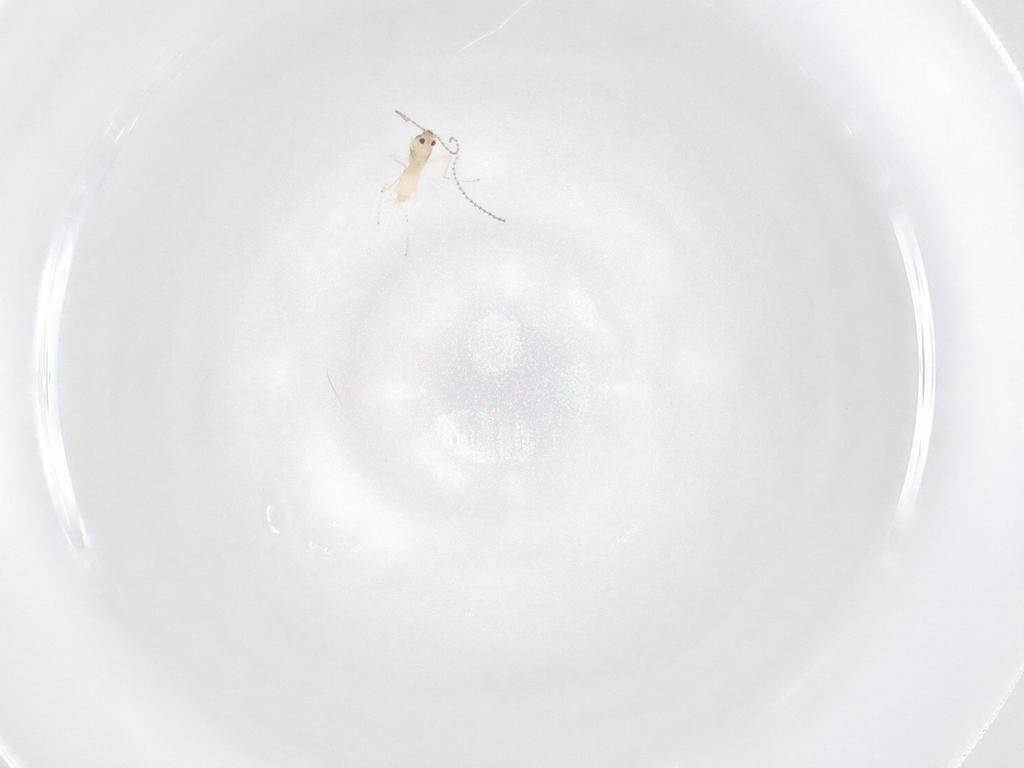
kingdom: Animalia
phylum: Arthropoda
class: Insecta
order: Diptera
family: Cecidomyiidae
